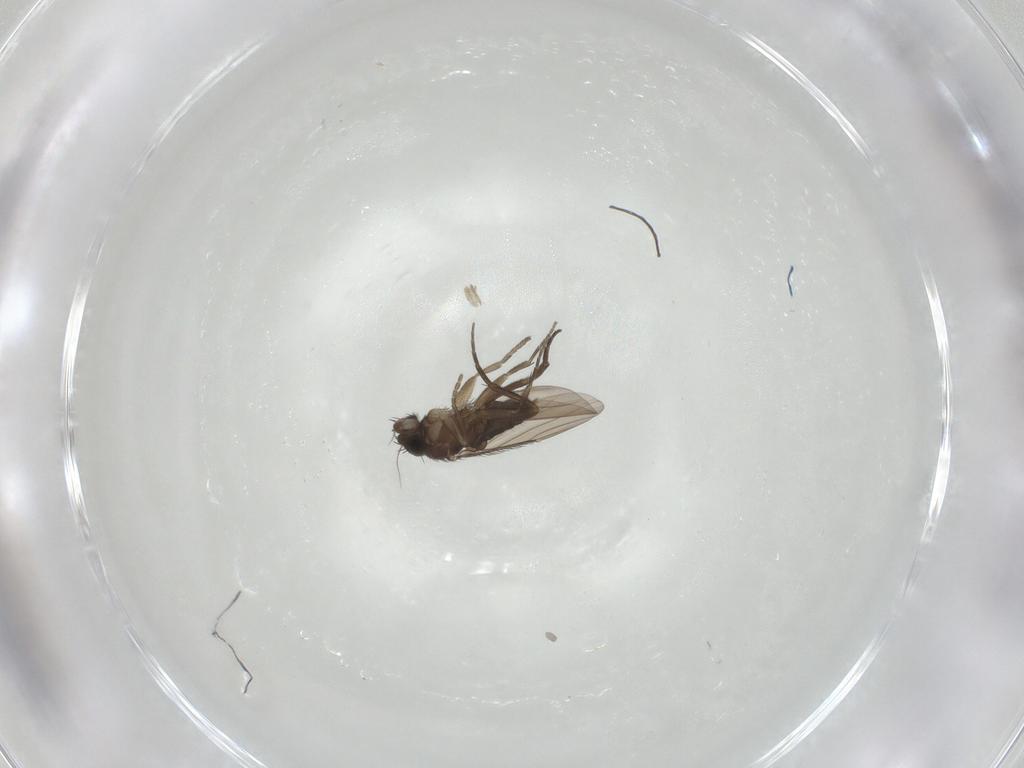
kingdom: Animalia
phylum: Arthropoda
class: Insecta
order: Diptera
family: Phoridae
